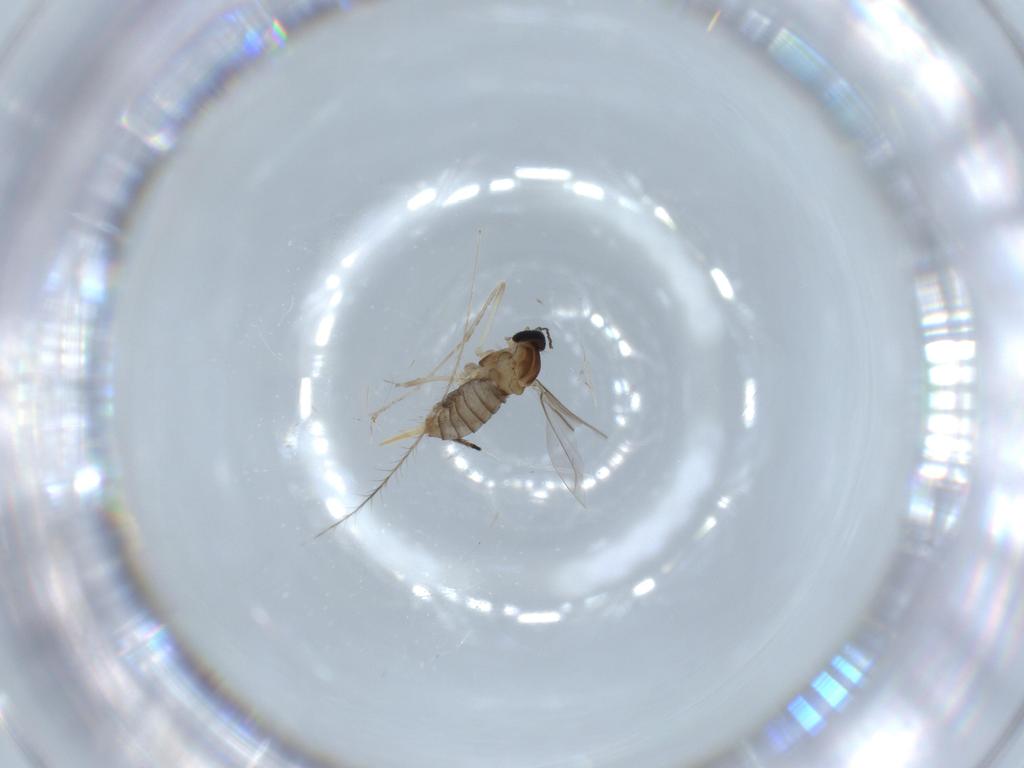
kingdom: Animalia
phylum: Arthropoda
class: Insecta
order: Diptera
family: Cecidomyiidae
